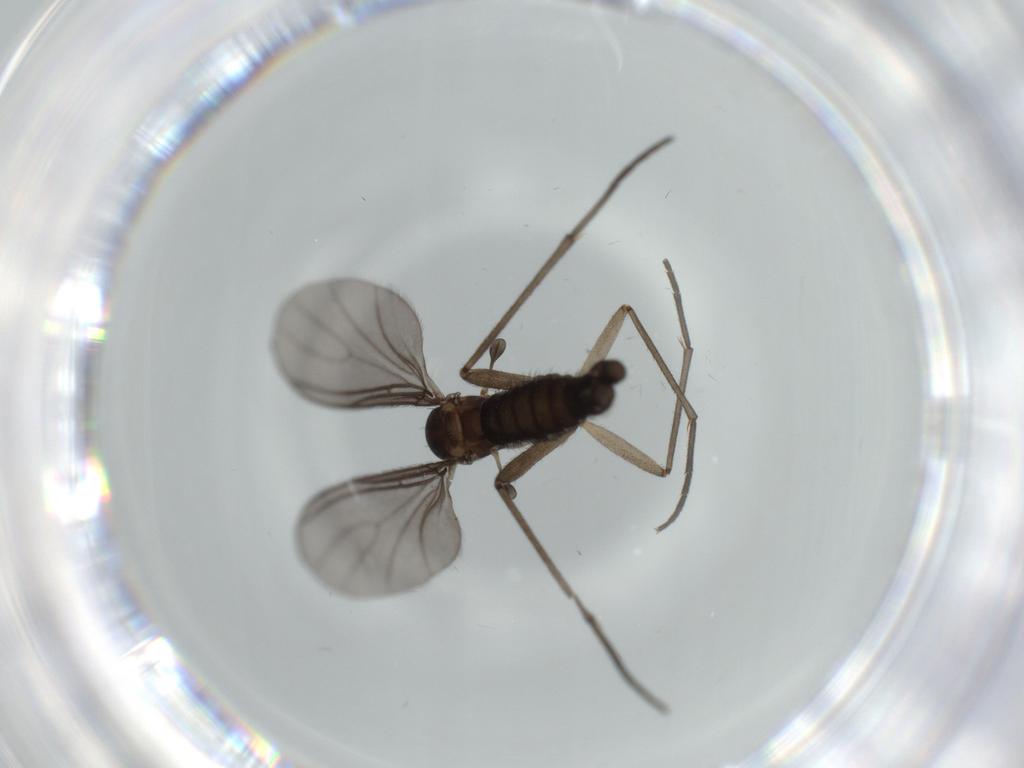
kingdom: Animalia
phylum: Arthropoda
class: Insecta
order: Diptera
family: Sciaridae
